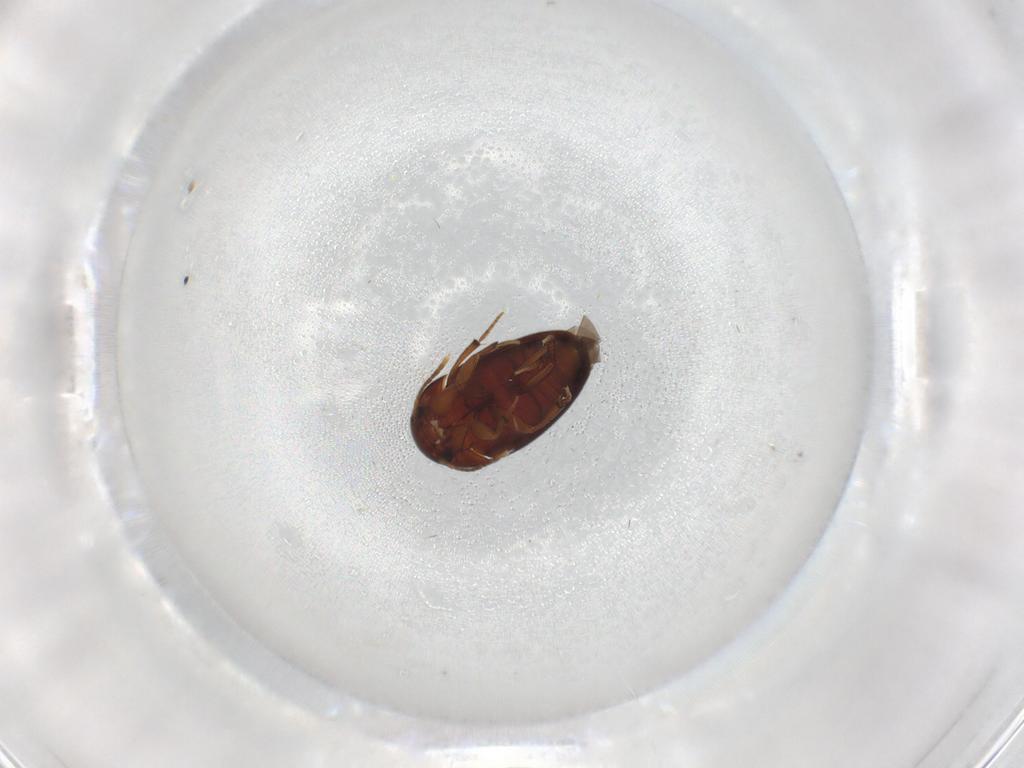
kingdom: Animalia
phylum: Arthropoda
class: Insecta
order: Coleoptera
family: Leiodidae
